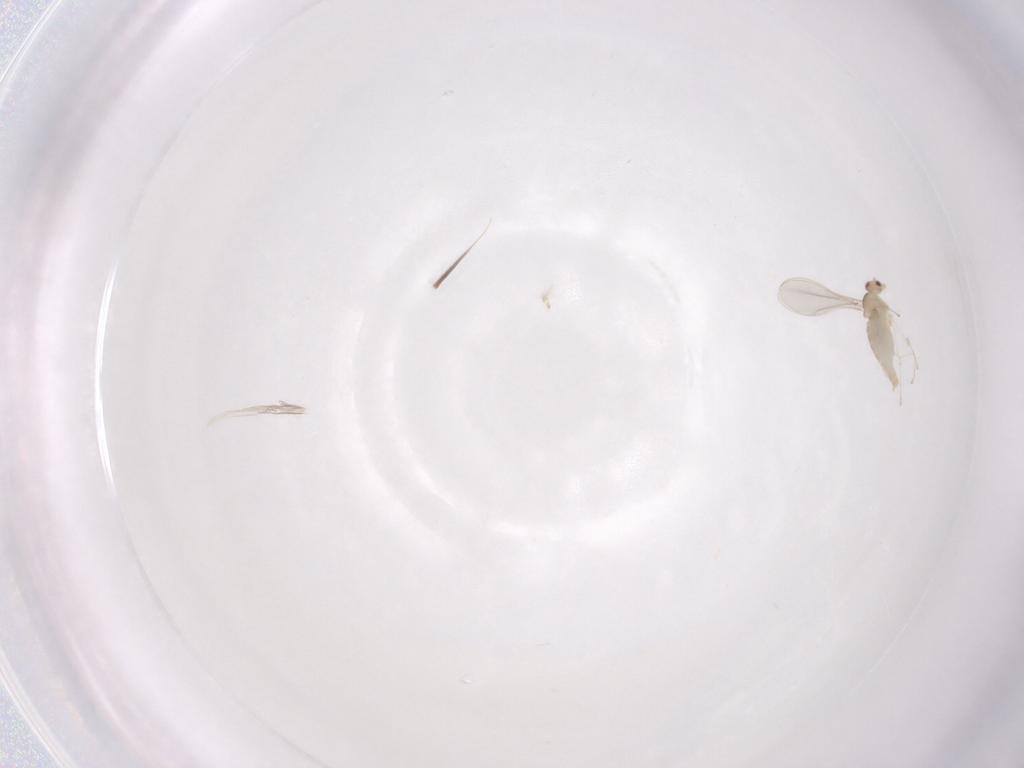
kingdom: Animalia
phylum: Arthropoda
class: Insecta
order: Diptera
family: Cecidomyiidae
